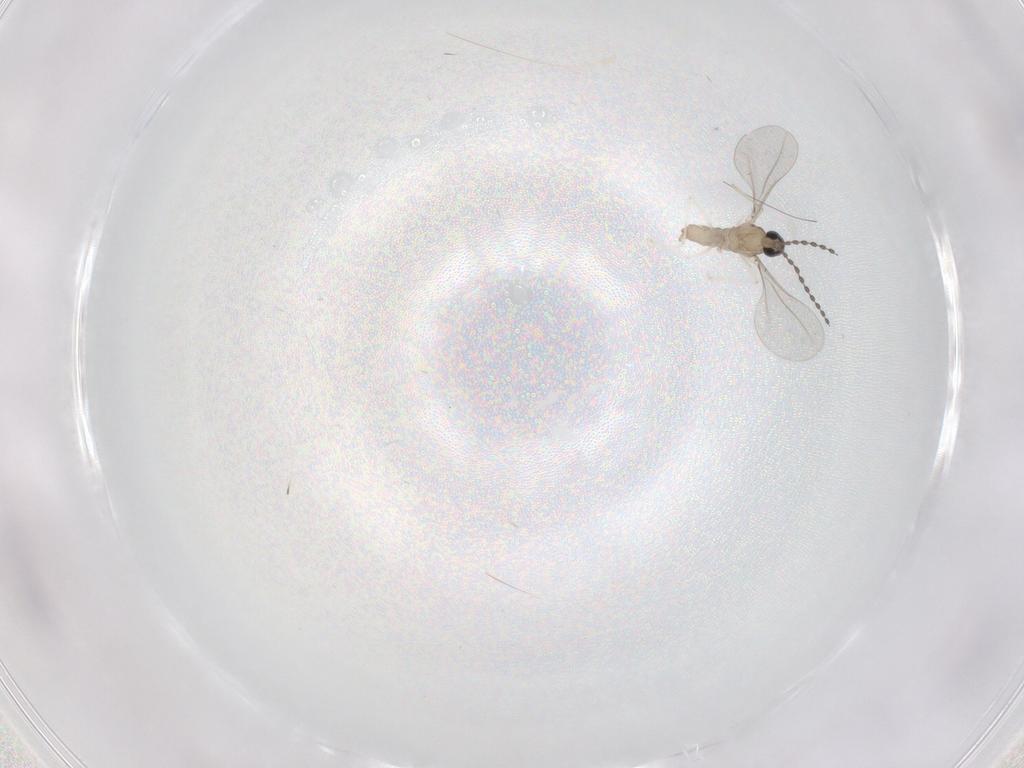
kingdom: Animalia
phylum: Arthropoda
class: Insecta
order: Diptera
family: Cecidomyiidae
